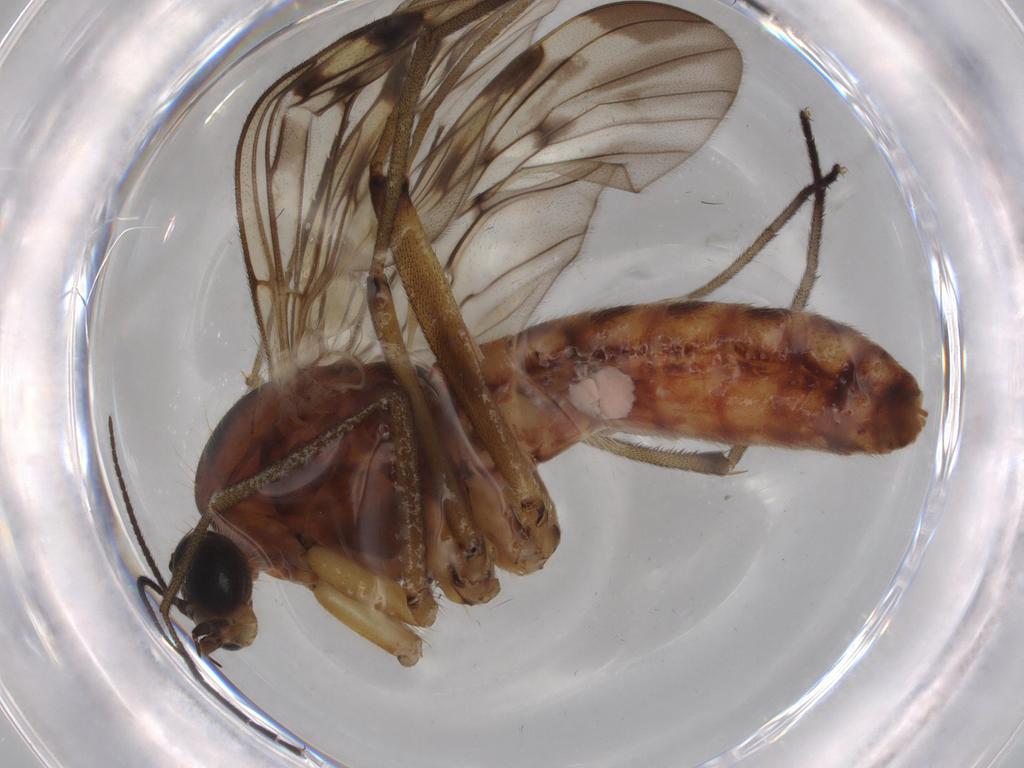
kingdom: Animalia
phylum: Arthropoda
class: Insecta
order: Diptera
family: Anisopodidae
